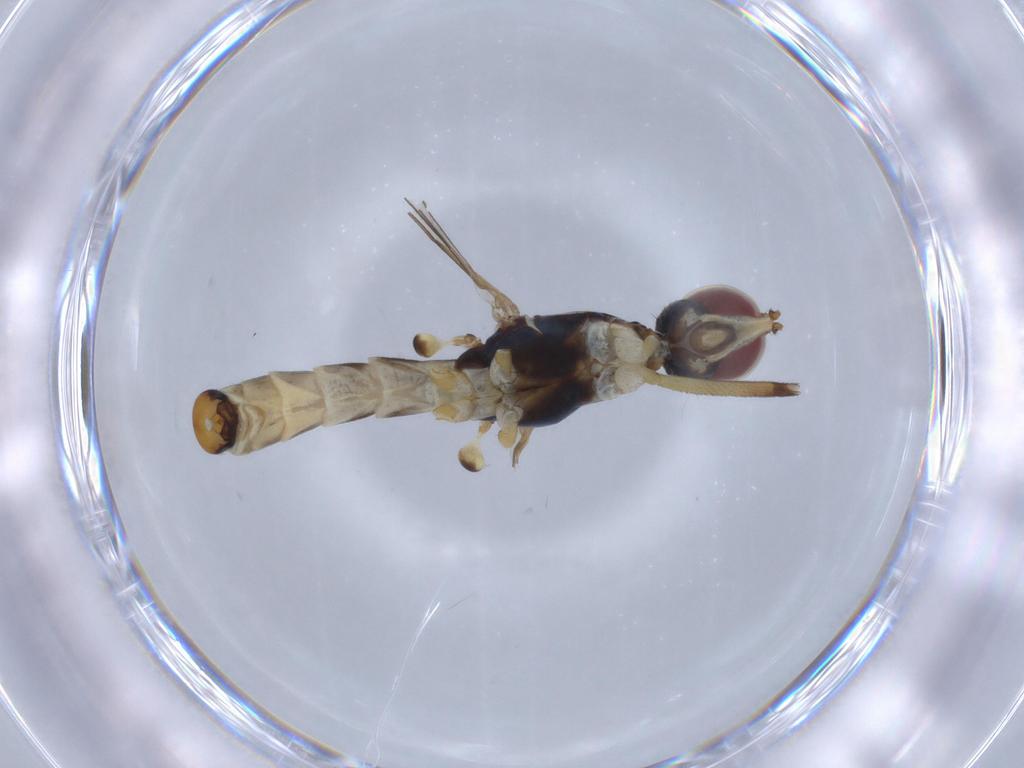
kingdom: Animalia
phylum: Arthropoda
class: Insecta
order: Diptera
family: Micropezidae
